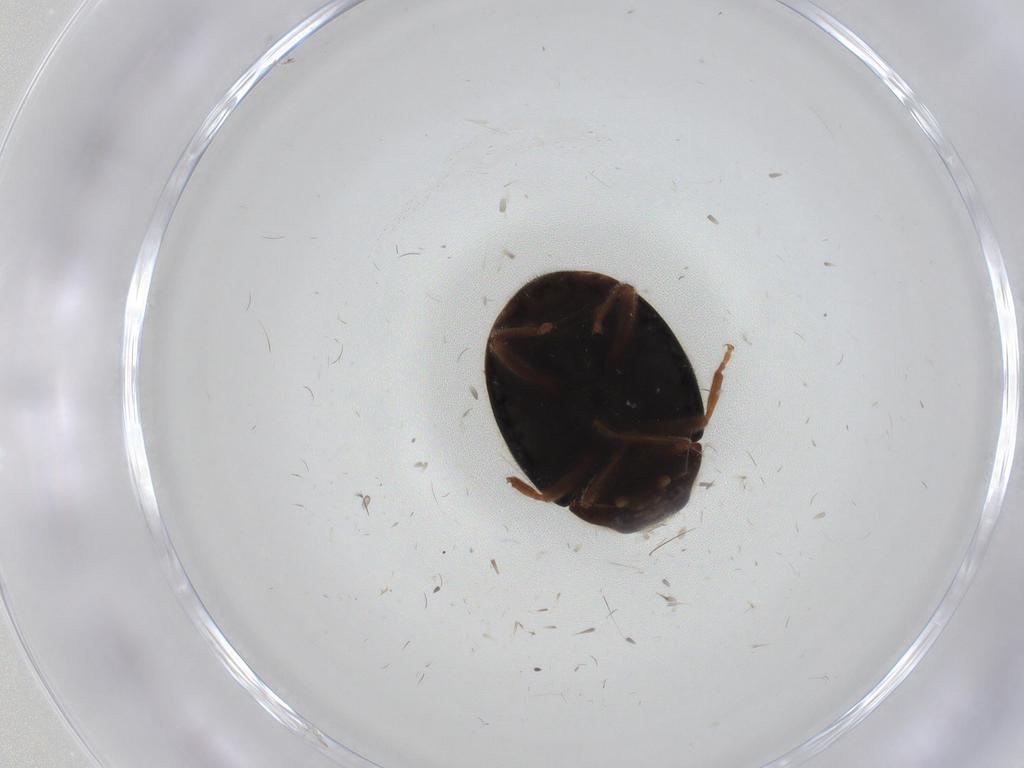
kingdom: Animalia
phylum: Arthropoda
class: Insecta
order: Coleoptera
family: Coccinellidae
